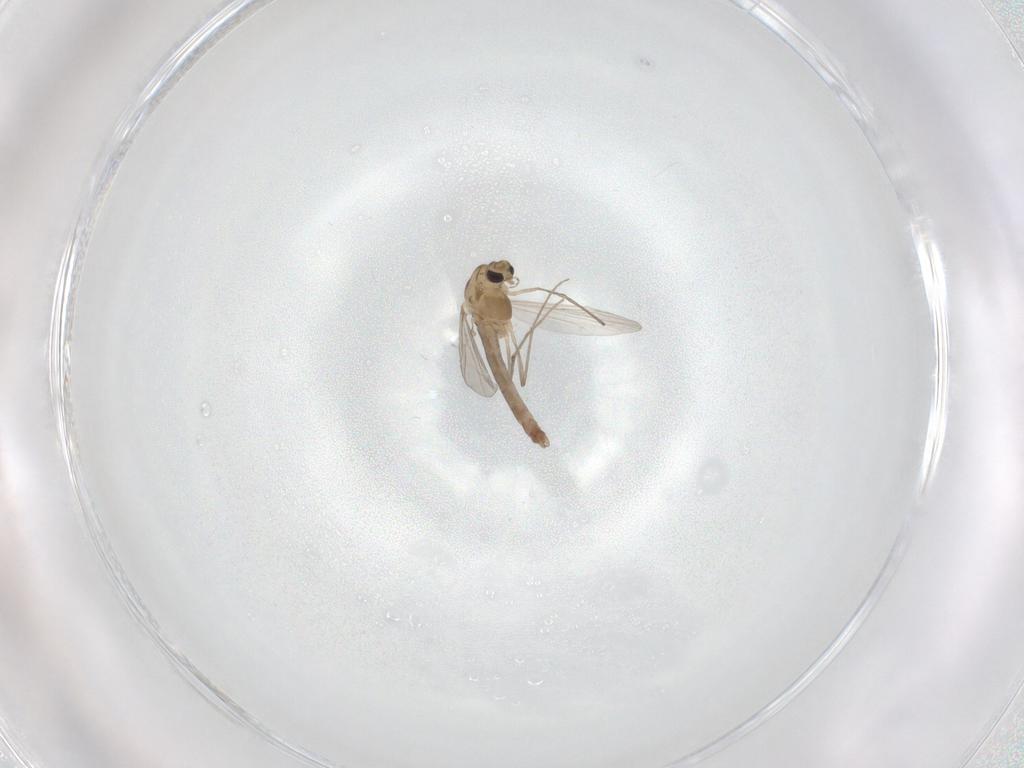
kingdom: Animalia
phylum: Arthropoda
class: Insecta
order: Diptera
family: Chironomidae
